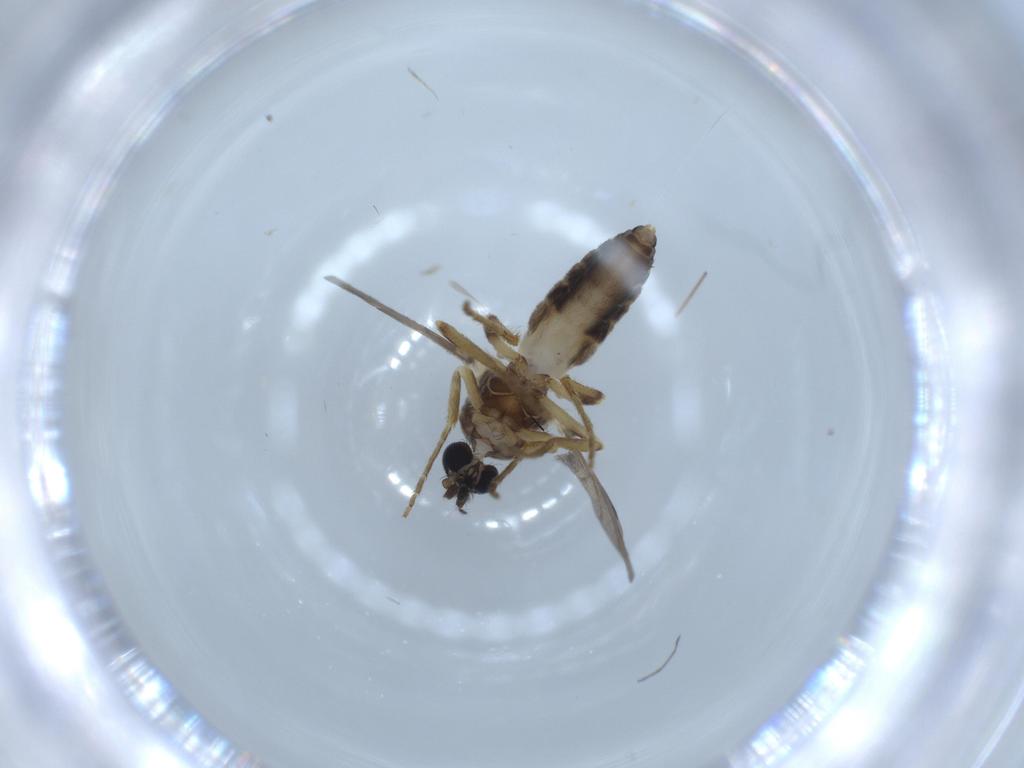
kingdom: Animalia
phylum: Arthropoda
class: Insecta
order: Diptera
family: Ceratopogonidae
